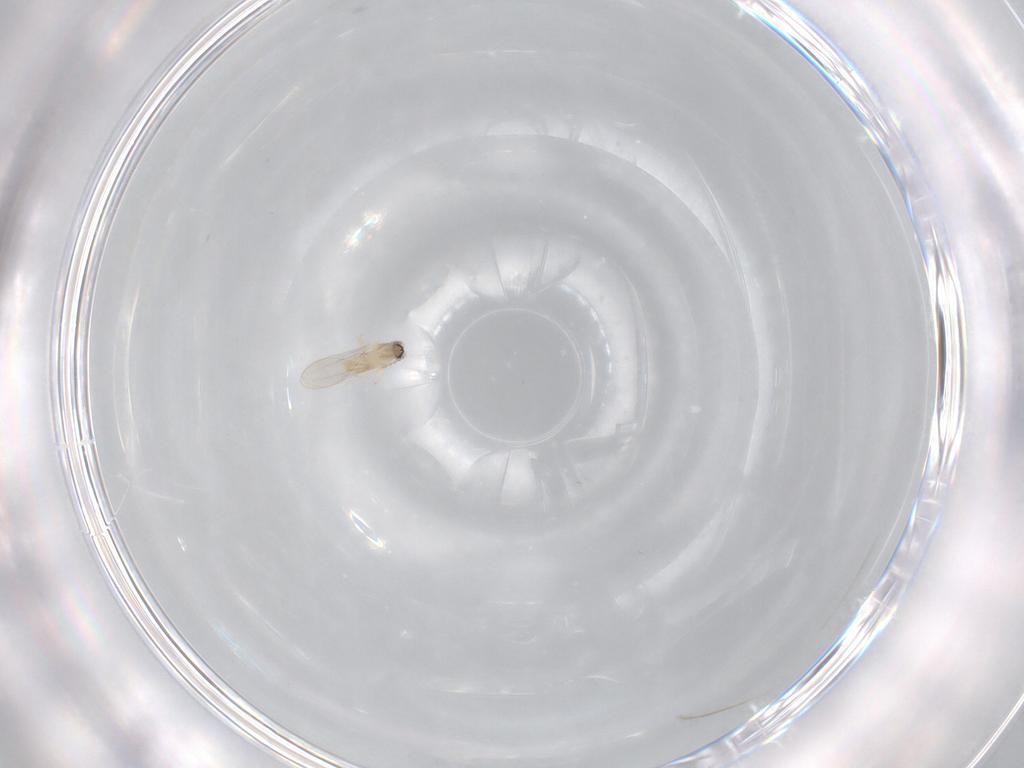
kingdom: Animalia
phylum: Arthropoda
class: Insecta
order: Diptera
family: Cecidomyiidae
